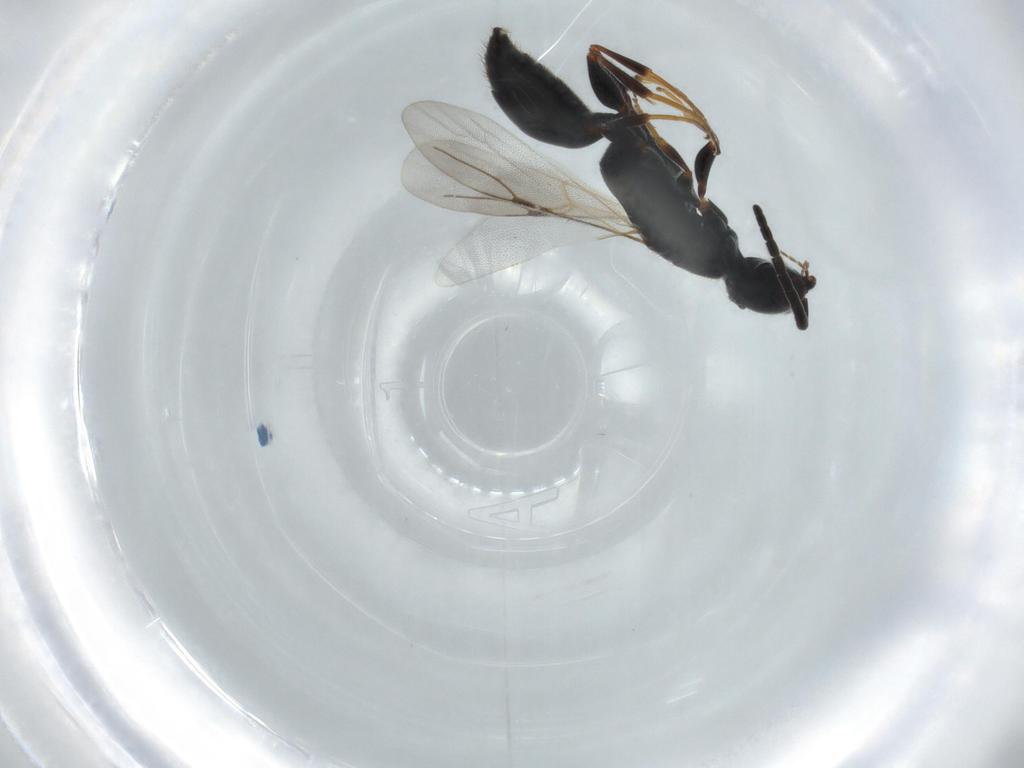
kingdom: Animalia
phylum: Arthropoda
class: Insecta
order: Hymenoptera
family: Bethylidae
